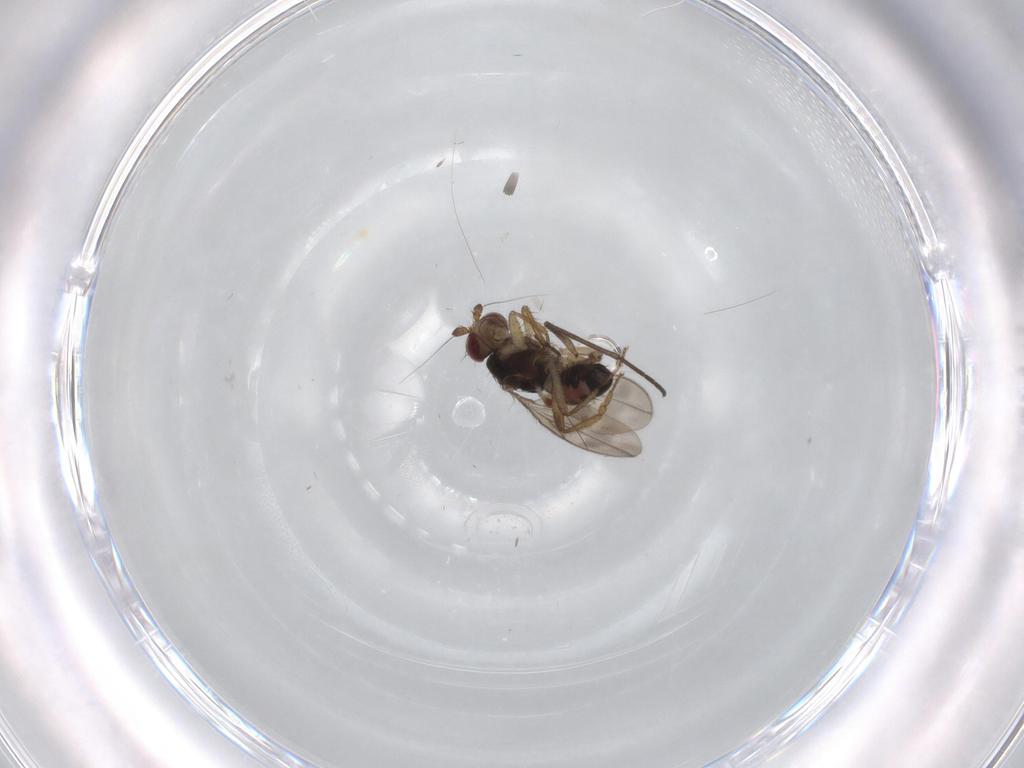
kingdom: Animalia
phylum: Arthropoda
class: Insecta
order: Diptera
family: Sphaeroceridae
